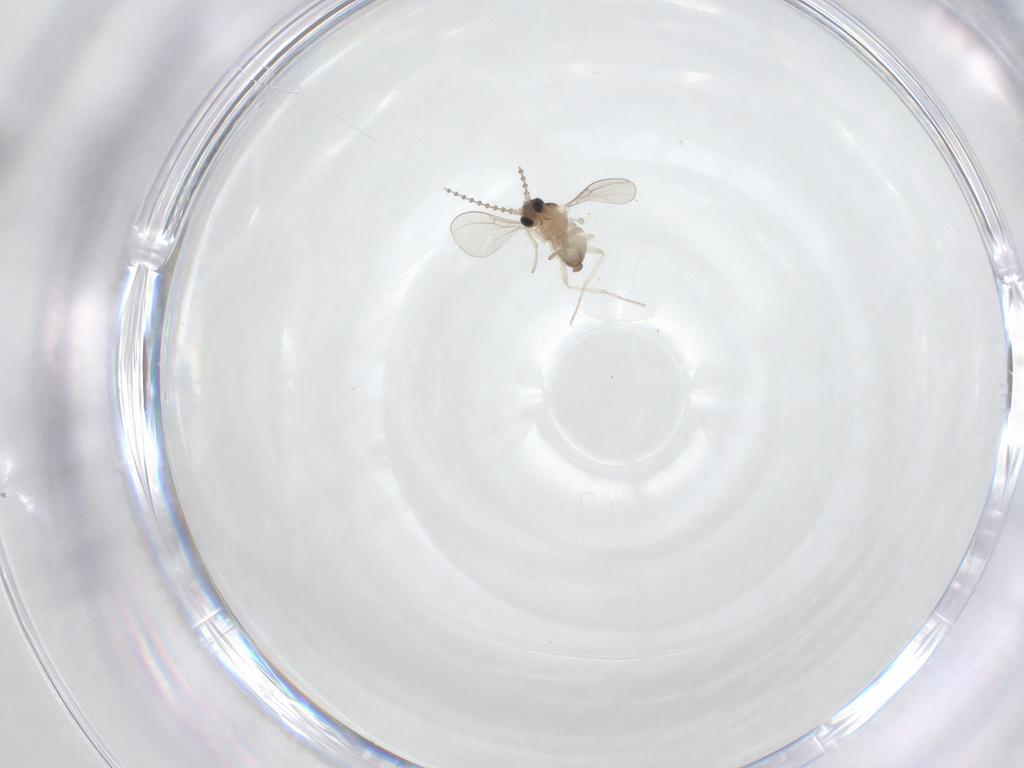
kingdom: Animalia
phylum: Arthropoda
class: Insecta
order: Diptera
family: Cecidomyiidae
